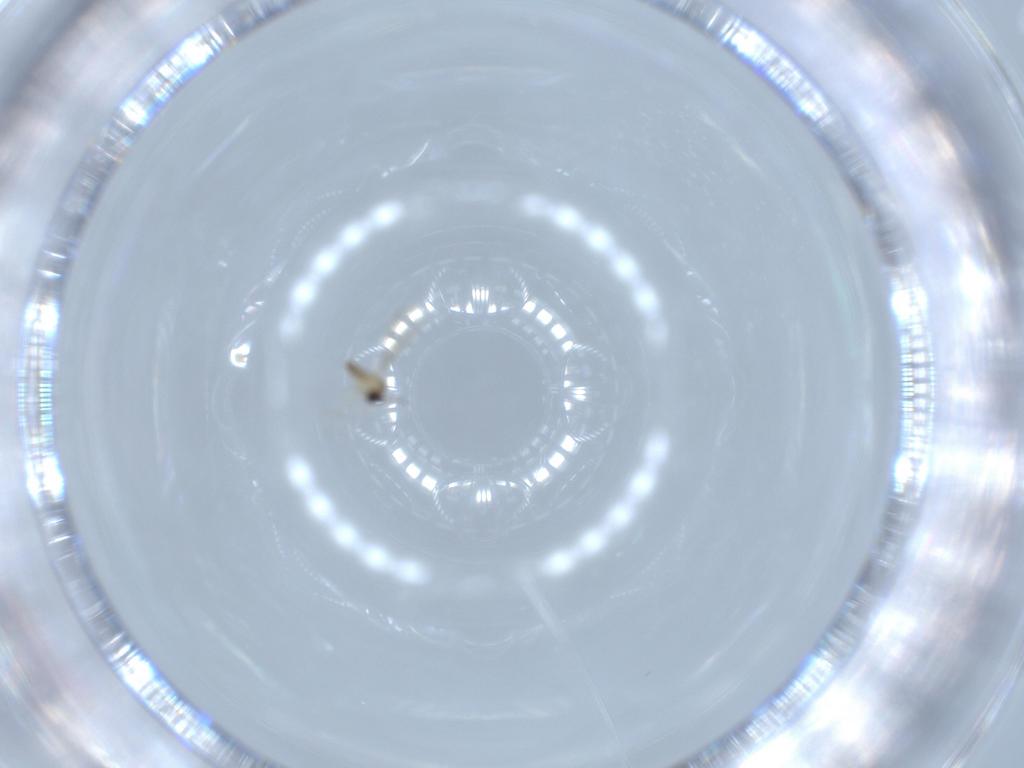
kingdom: Animalia
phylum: Arthropoda
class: Insecta
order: Diptera
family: Cecidomyiidae
